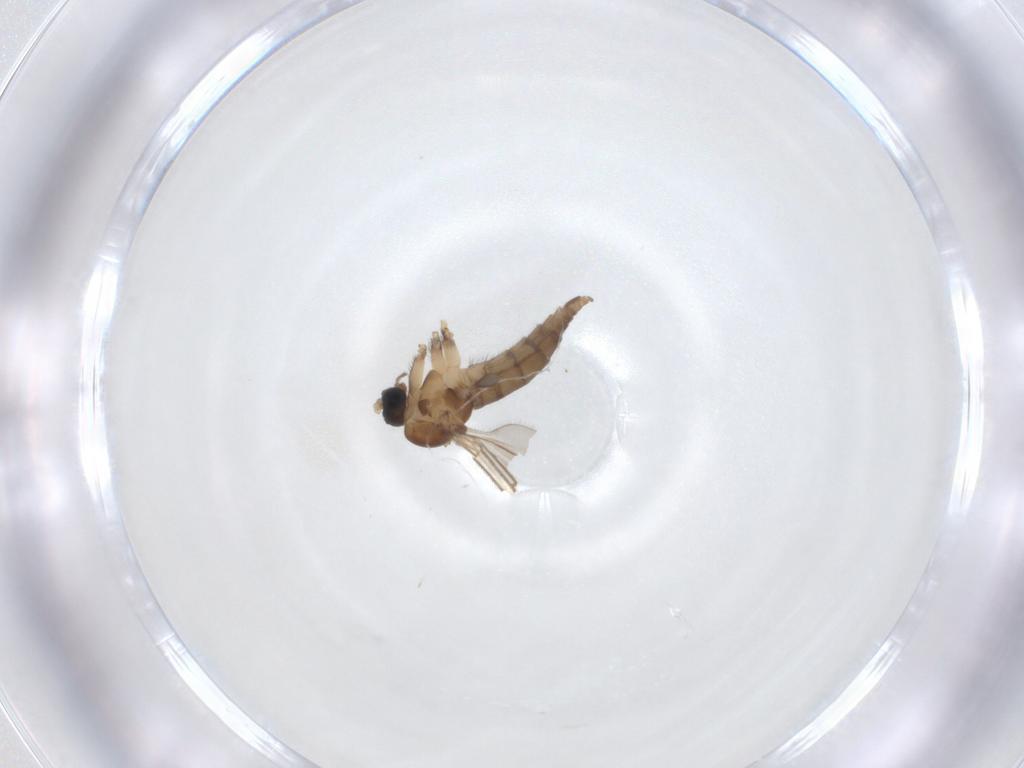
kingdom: Animalia
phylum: Arthropoda
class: Insecta
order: Diptera
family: Sciaridae
